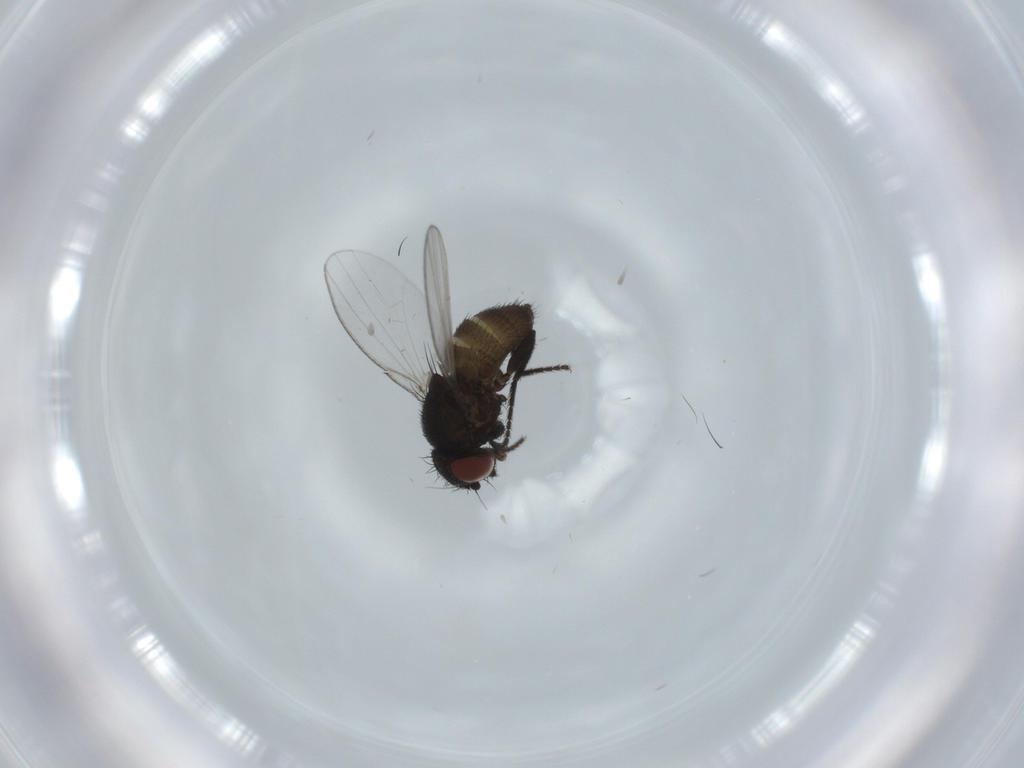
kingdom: Animalia
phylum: Arthropoda
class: Insecta
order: Diptera
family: Milichiidae
